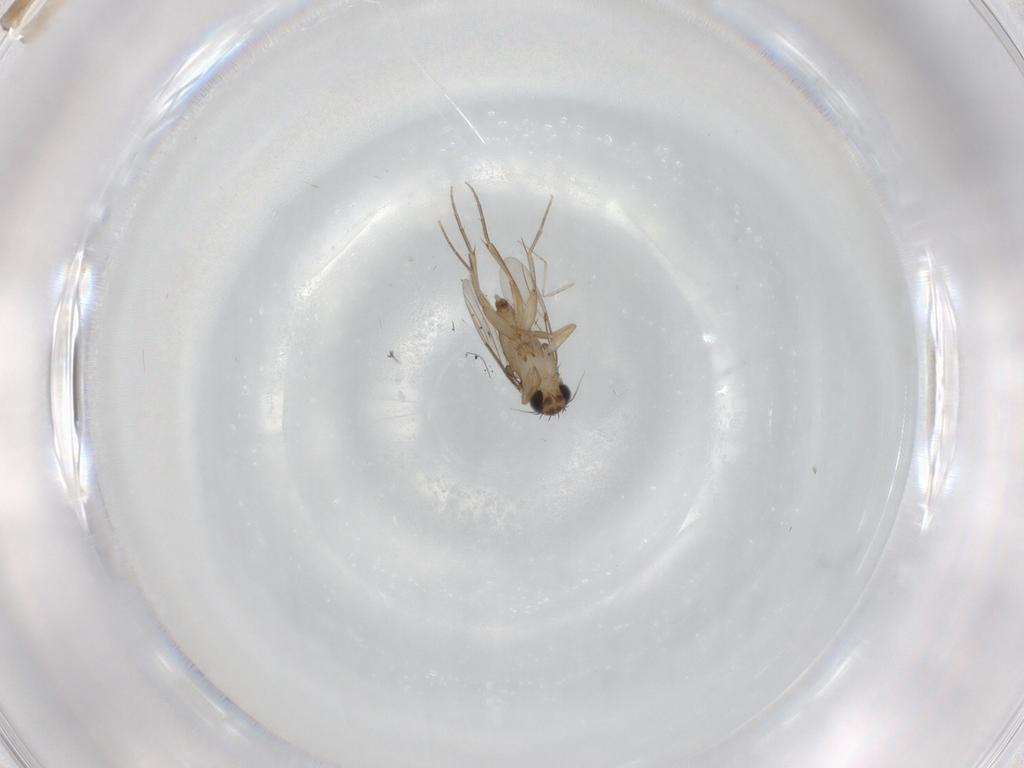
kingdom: Animalia
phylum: Arthropoda
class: Insecta
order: Diptera
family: Phoridae
